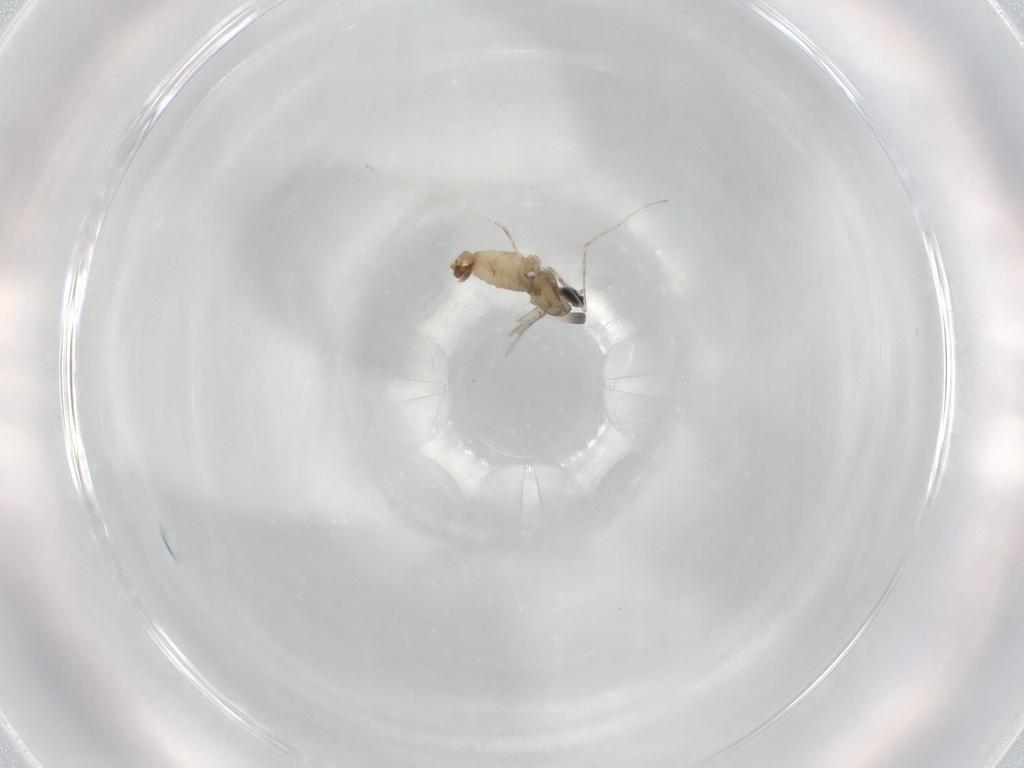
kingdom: Animalia
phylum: Arthropoda
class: Insecta
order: Diptera
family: Cecidomyiidae
